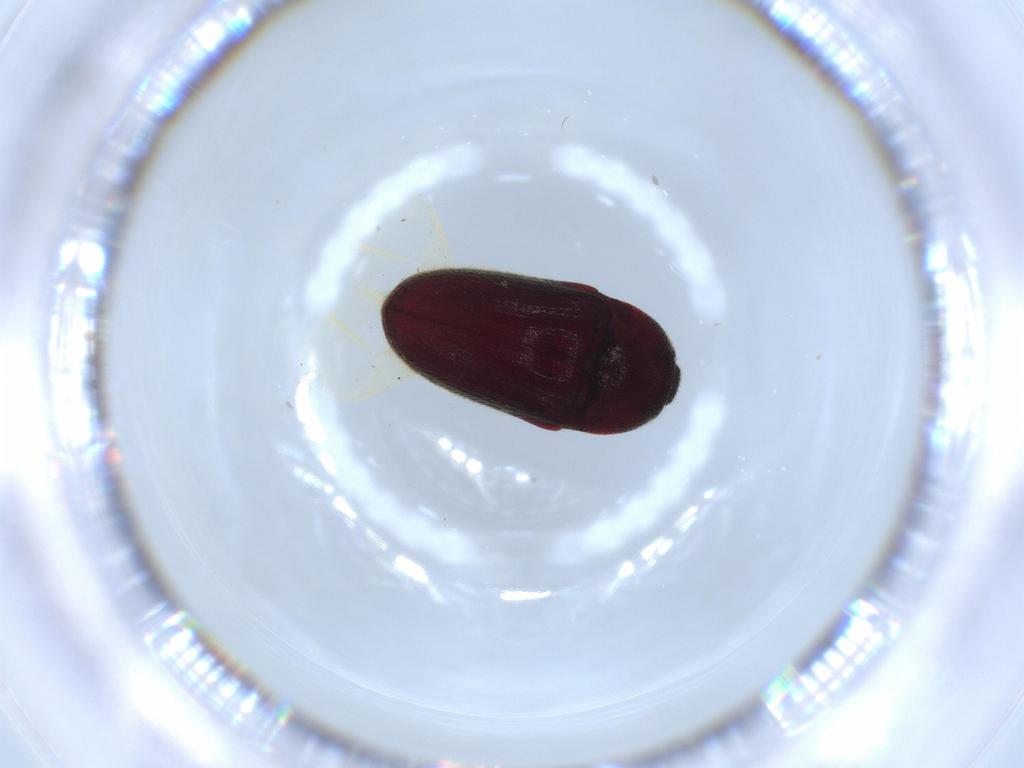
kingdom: Animalia
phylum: Arthropoda
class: Insecta
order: Coleoptera
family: Throscidae
